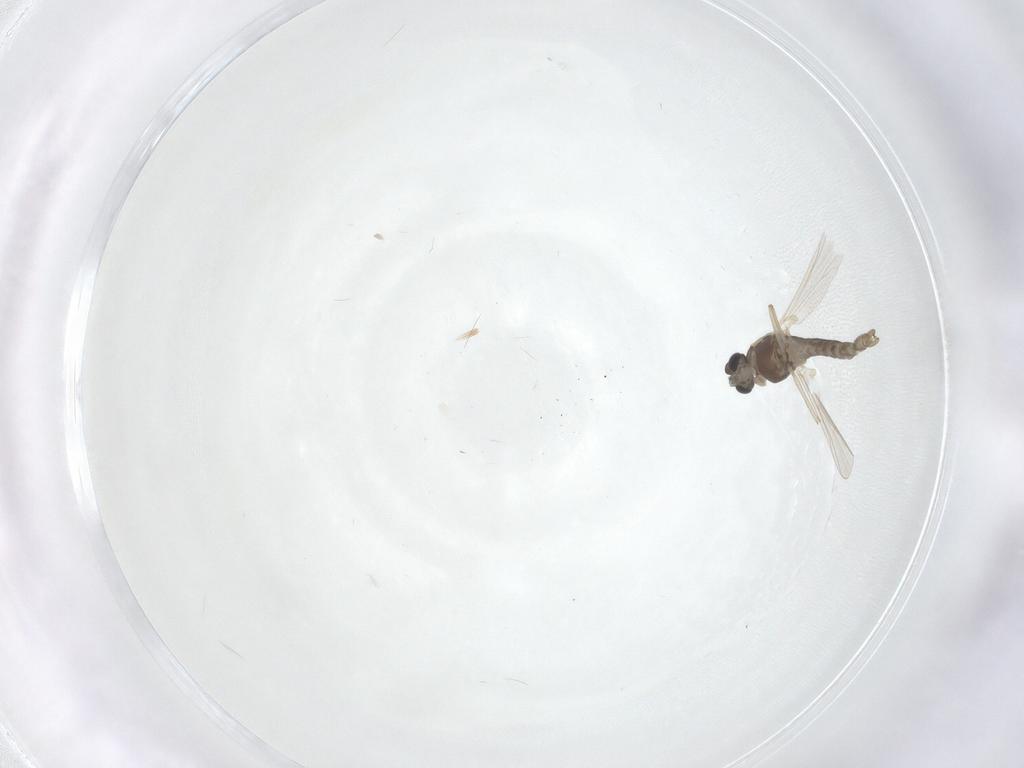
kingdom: Animalia
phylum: Arthropoda
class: Insecta
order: Diptera
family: Chironomidae
